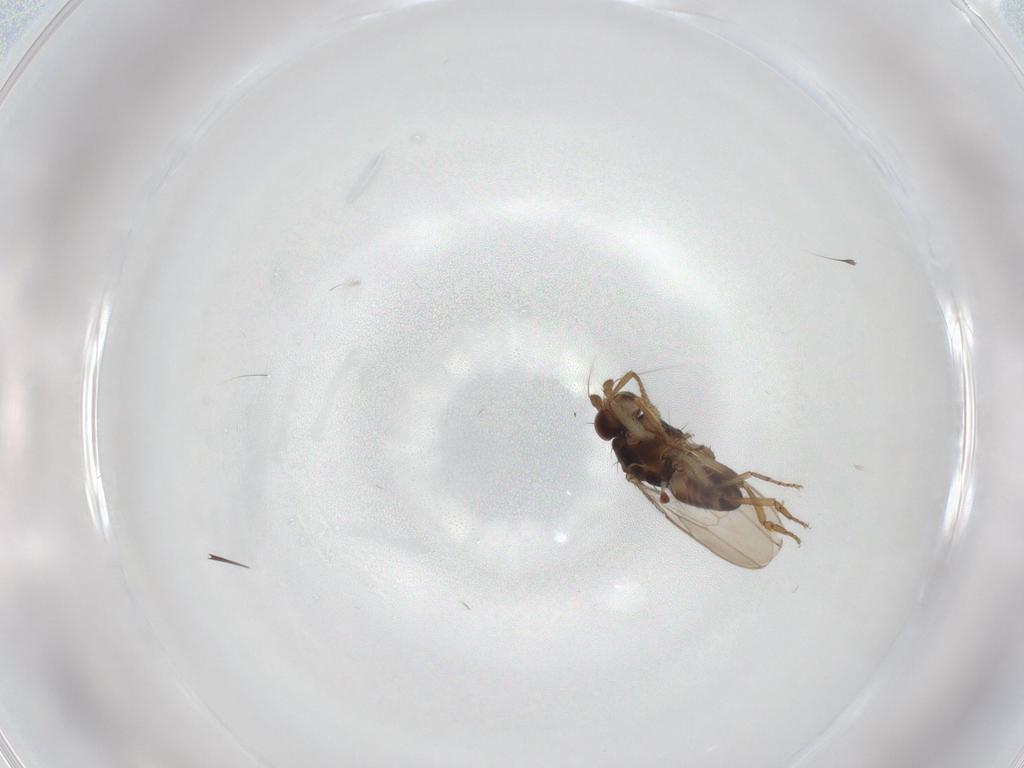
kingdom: Animalia
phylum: Arthropoda
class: Insecta
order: Diptera
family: Sphaeroceridae
